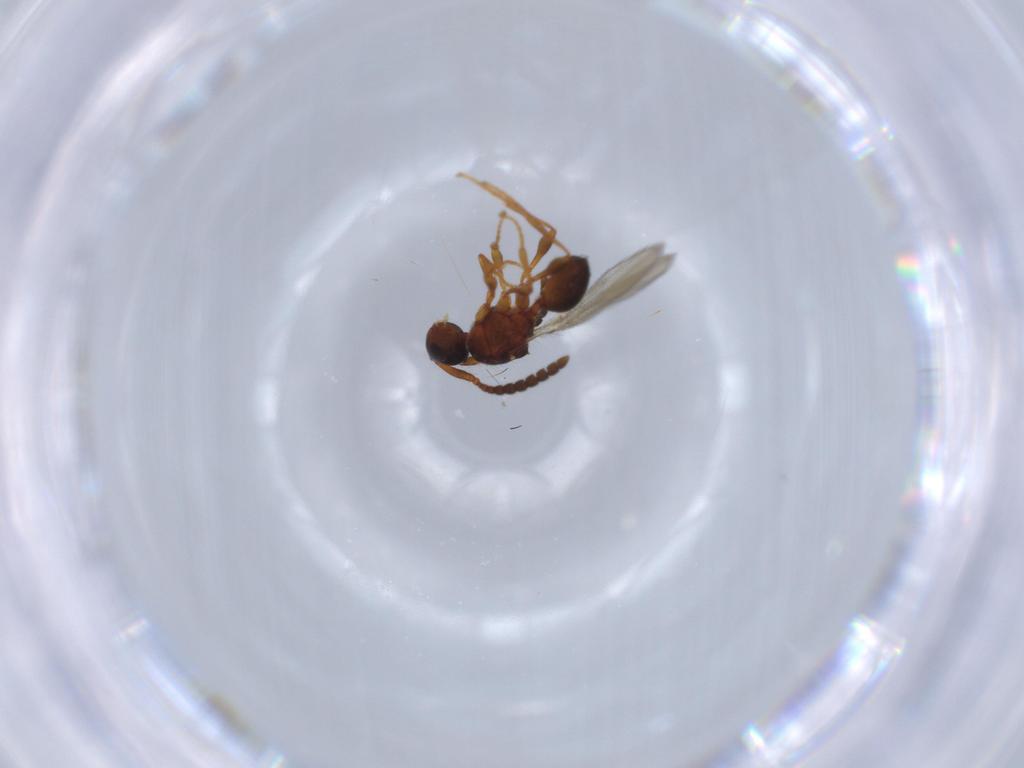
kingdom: Animalia
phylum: Arthropoda
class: Insecta
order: Hymenoptera
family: Diapriidae
